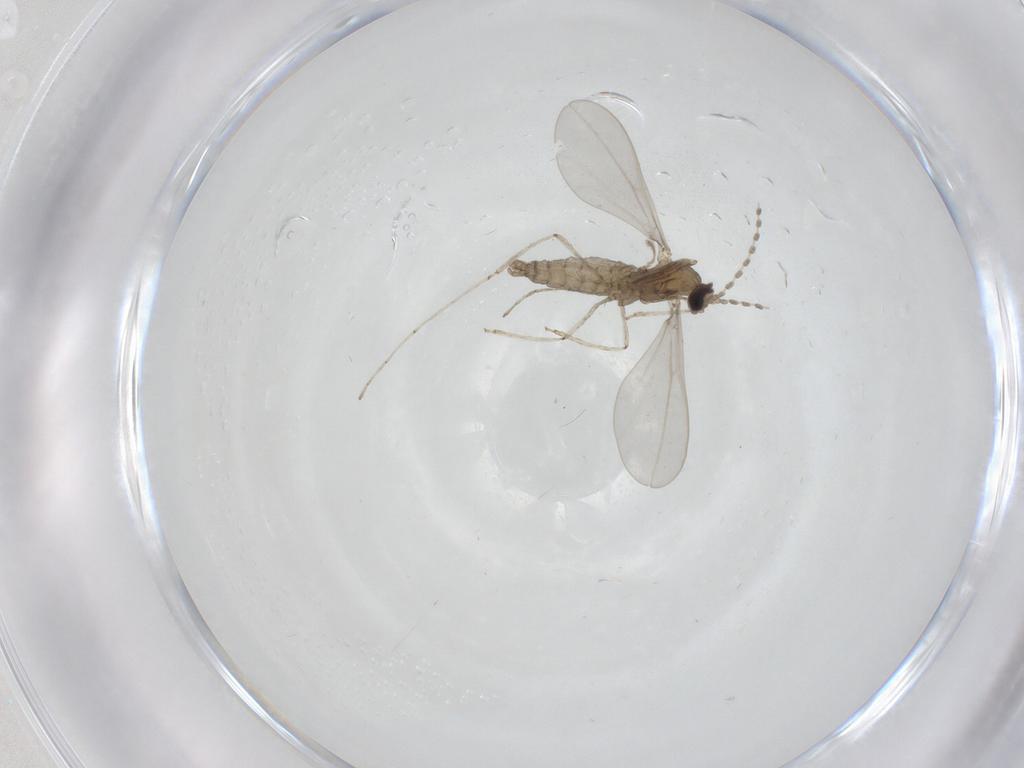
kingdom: Animalia
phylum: Arthropoda
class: Insecta
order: Diptera
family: Cecidomyiidae
